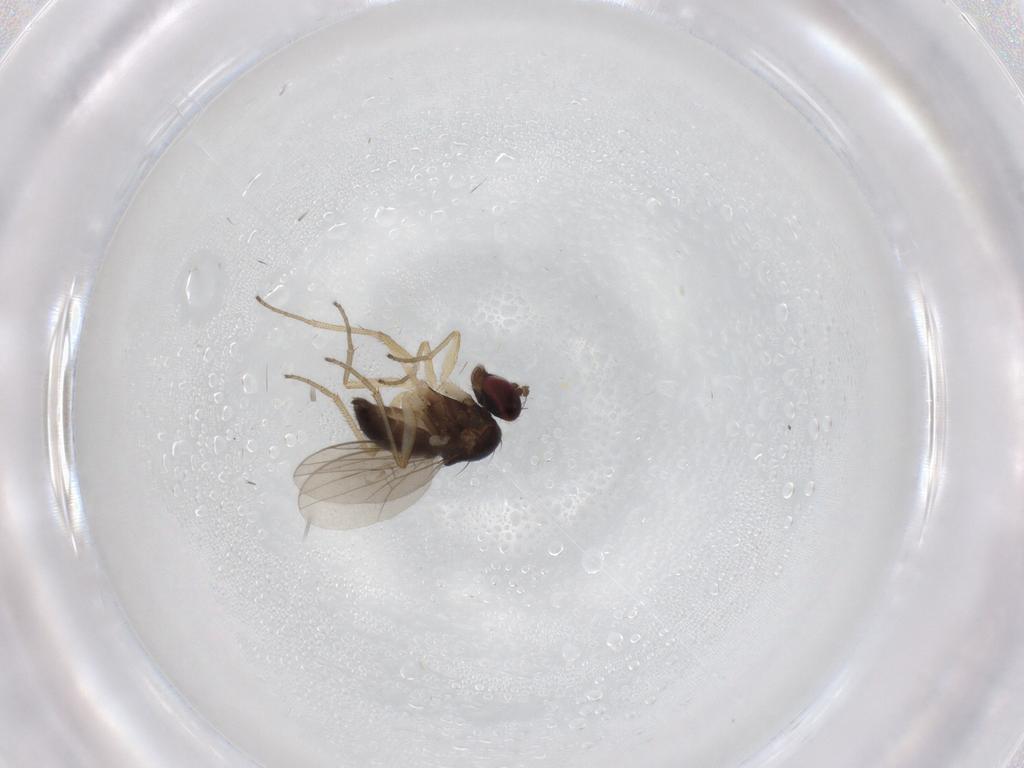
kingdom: Animalia
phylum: Arthropoda
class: Insecta
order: Diptera
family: Dolichopodidae
